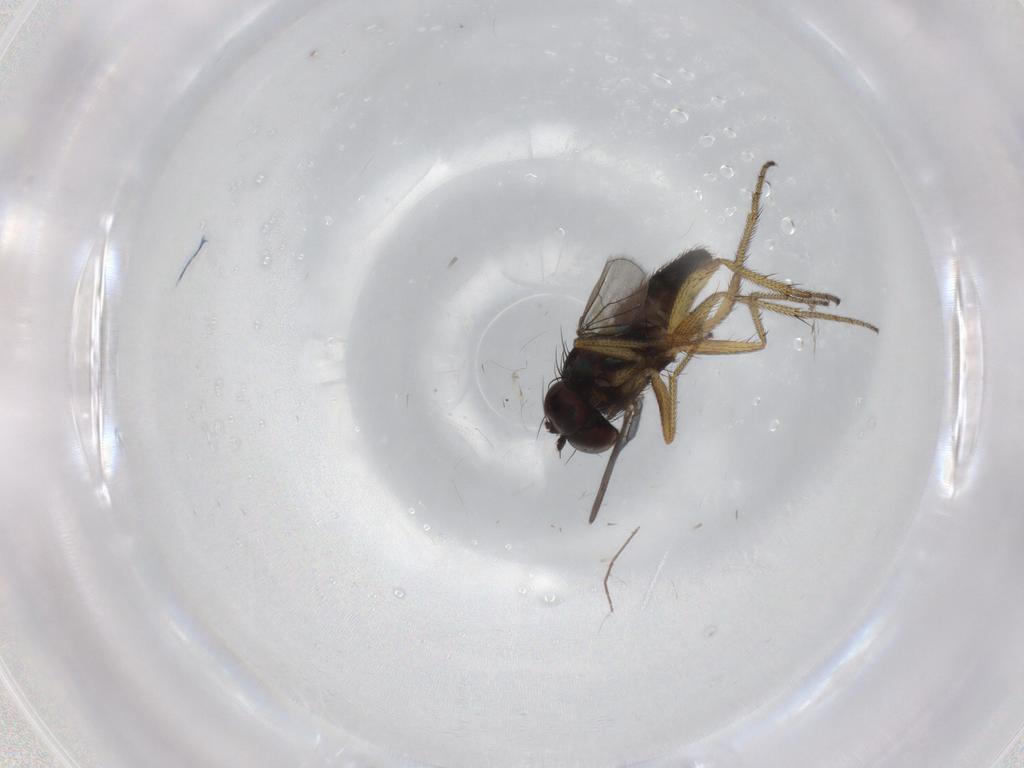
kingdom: Animalia
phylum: Arthropoda
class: Insecta
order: Diptera
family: Dolichopodidae
